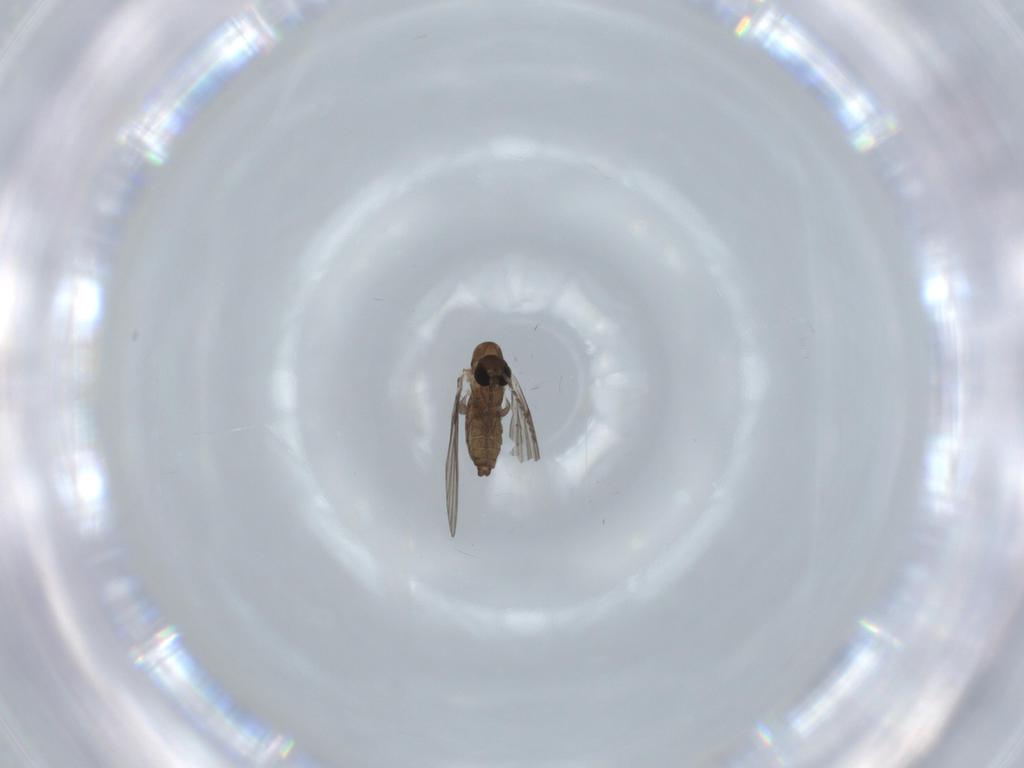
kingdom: Animalia
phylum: Arthropoda
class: Insecta
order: Diptera
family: Psychodidae
